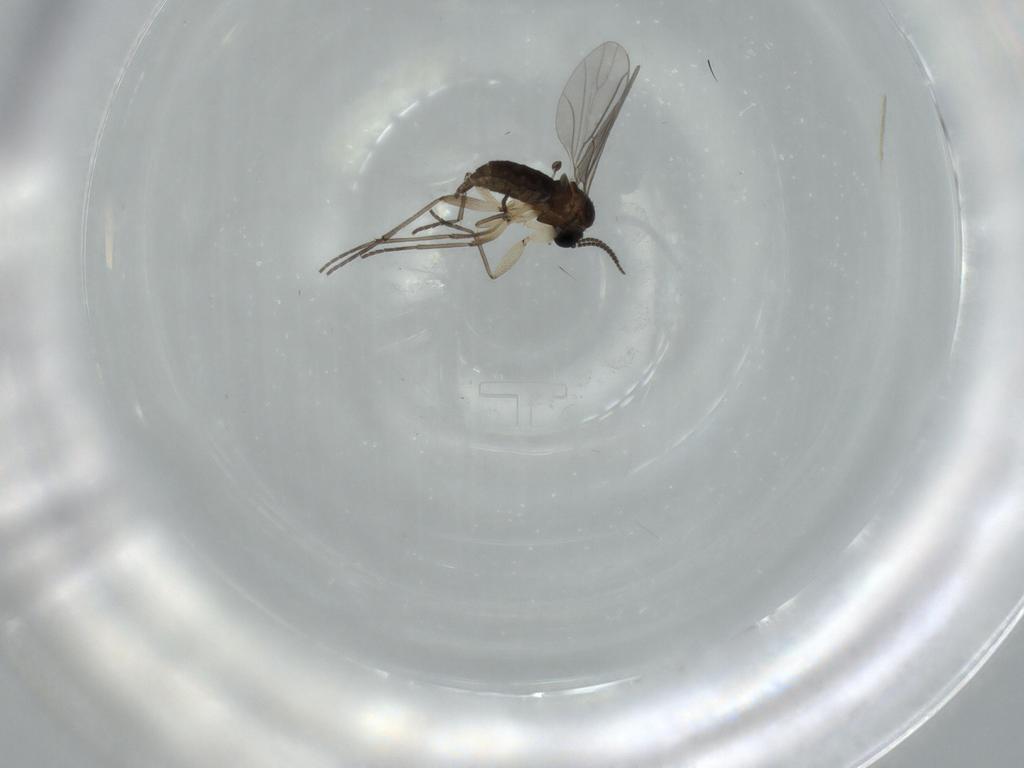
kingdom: Animalia
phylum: Arthropoda
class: Insecta
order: Diptera
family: Sciaridae
